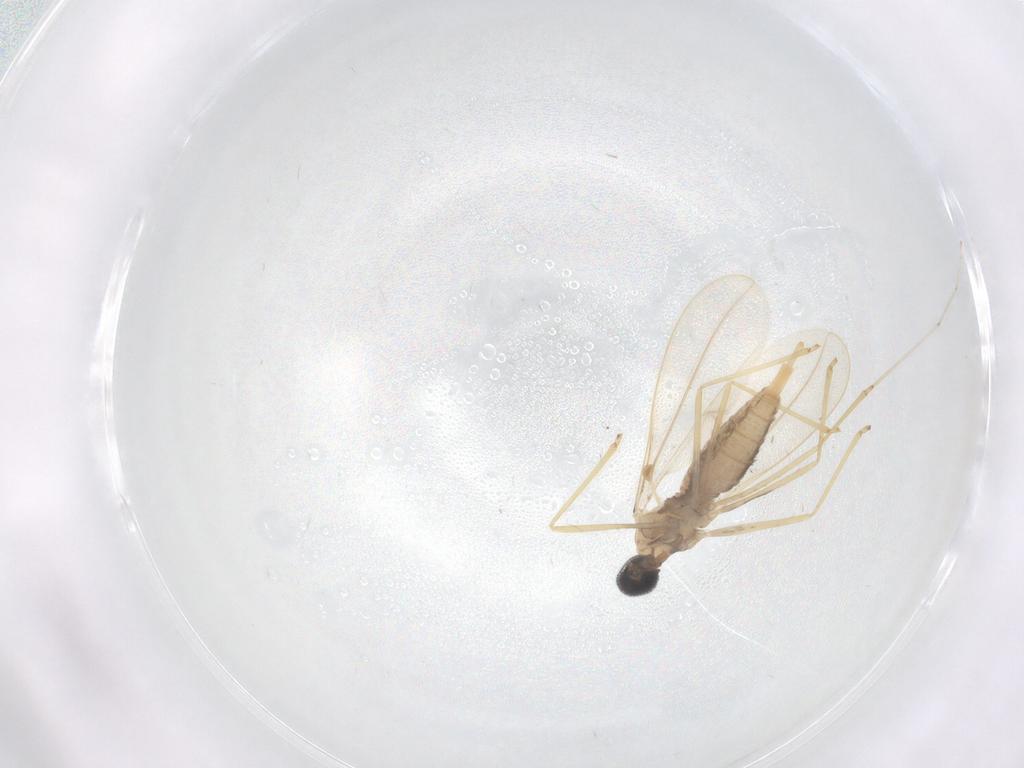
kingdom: Animalia
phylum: Arthropoda
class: Insecta
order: Diptera
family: Cecidomyiidae
